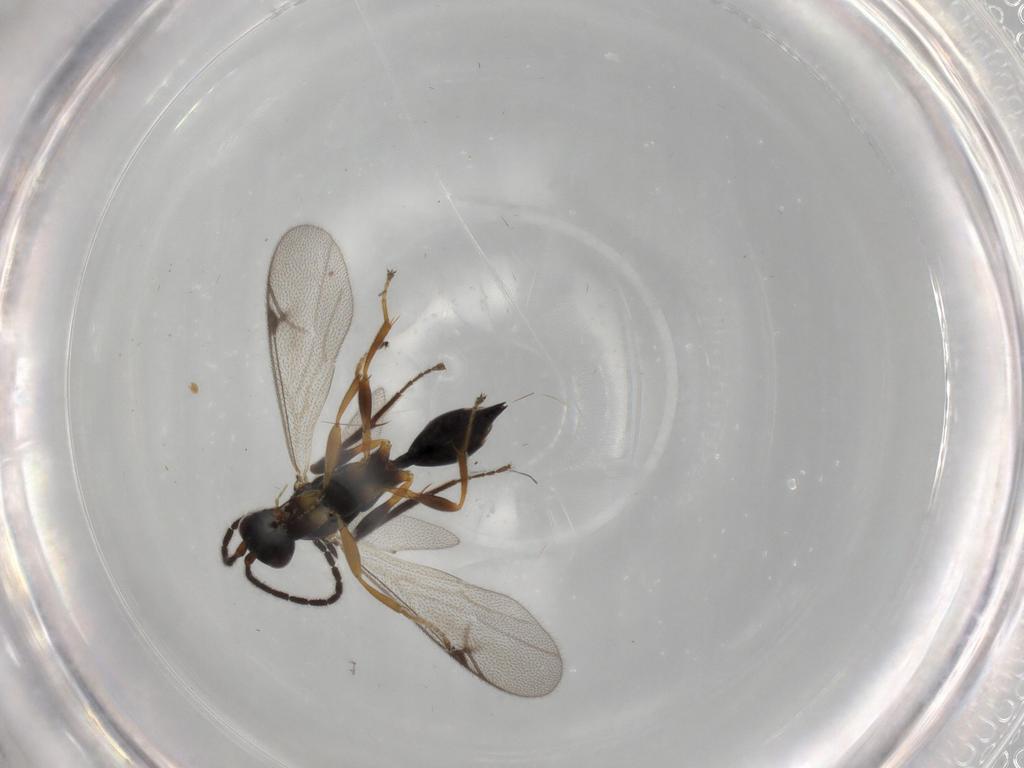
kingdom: Animalia
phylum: Arthropoda
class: Insecta
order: Hymenoptera
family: Proctotrupidae
